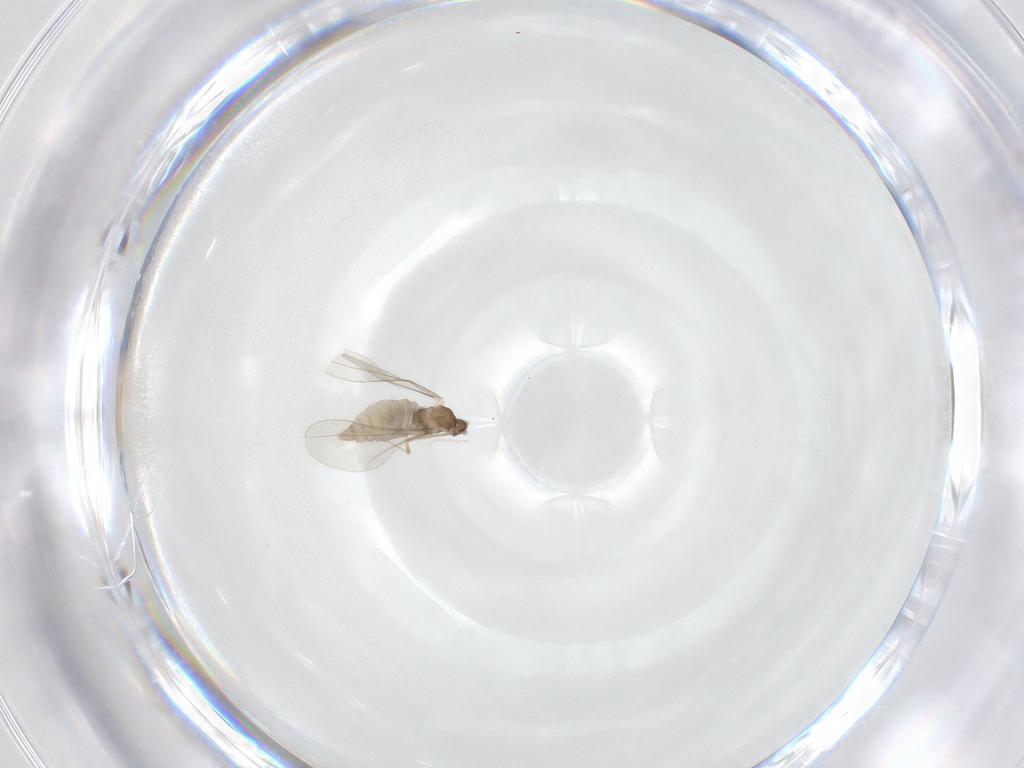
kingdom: Animalia
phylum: Arthropoda
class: Insecta
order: Diptera
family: Cecidomyiidae
